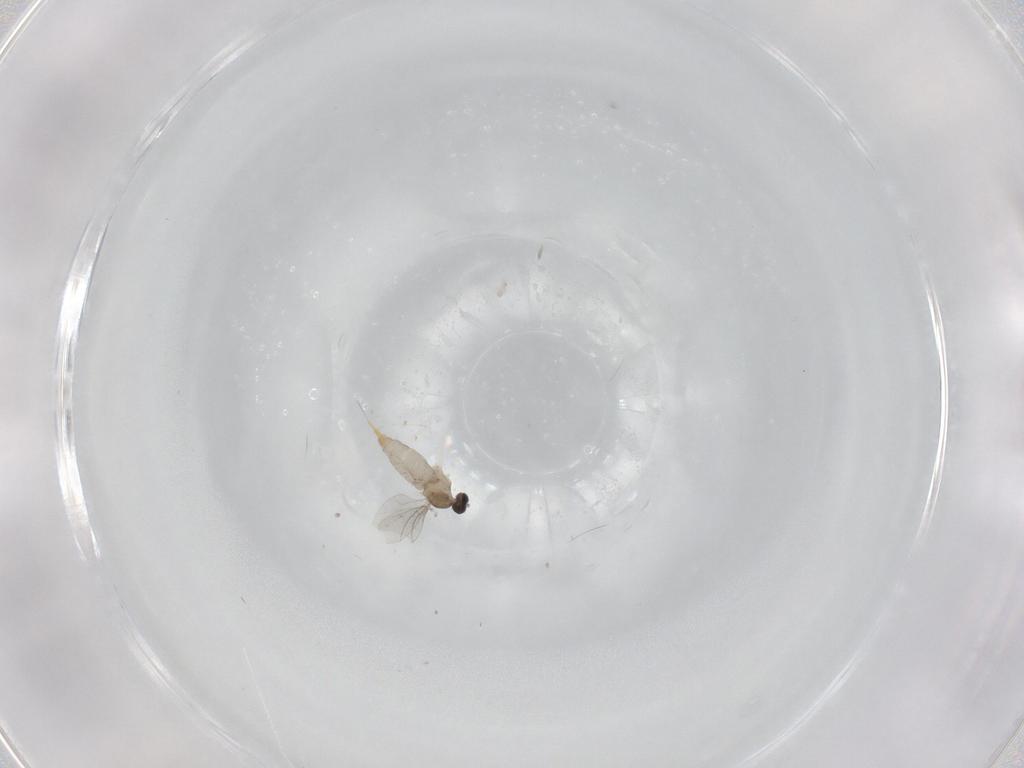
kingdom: Animalia
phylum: Arthropoda
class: Insecta
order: Diptera
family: Cecidomyiidae
